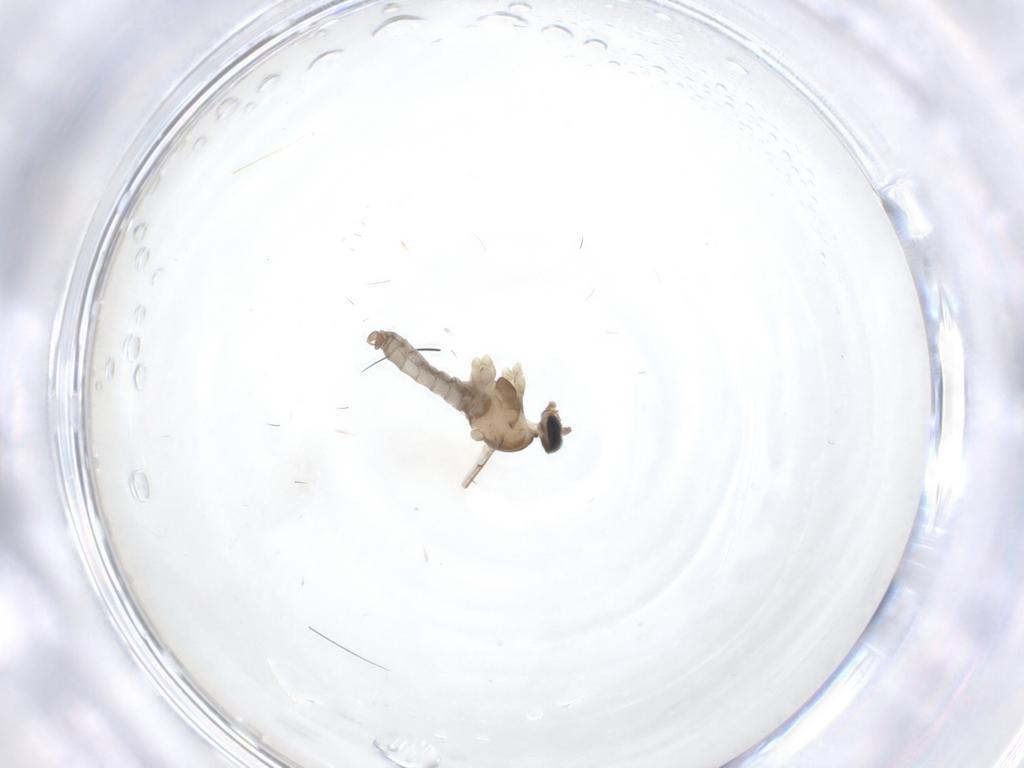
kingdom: Animalia
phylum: Arthropoda
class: Insecta
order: Diptera
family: Cecidomyiidae
